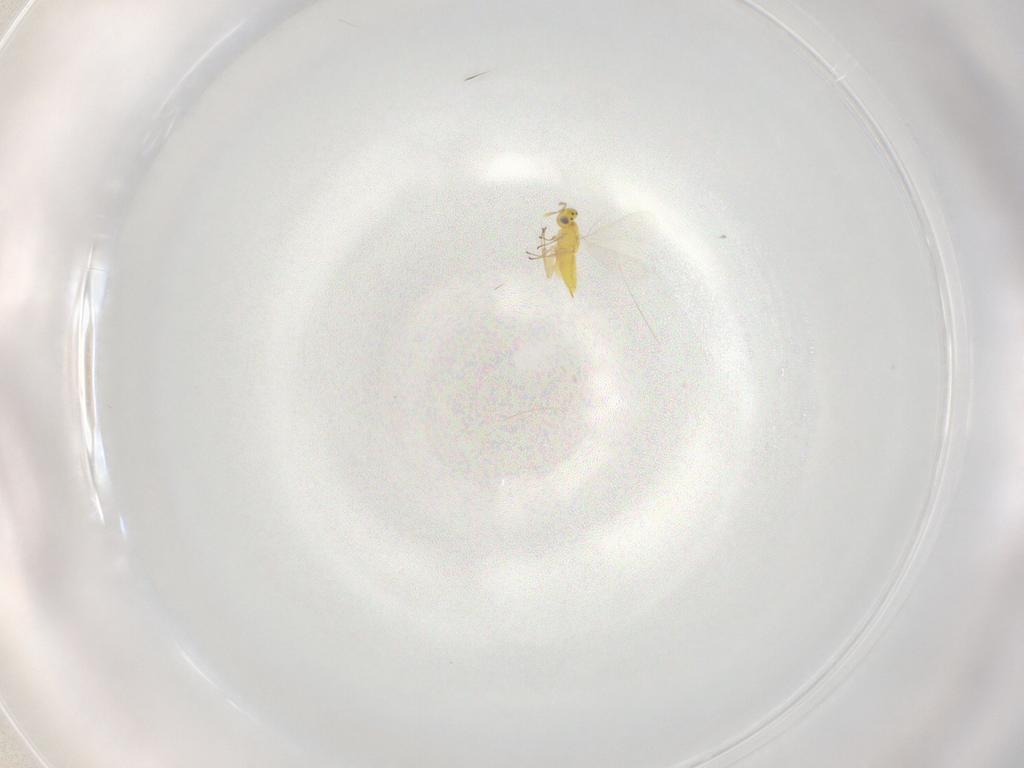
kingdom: Animalia
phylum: Arthropoda
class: Insecta
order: Hymenoptera
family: Aphelinidae
